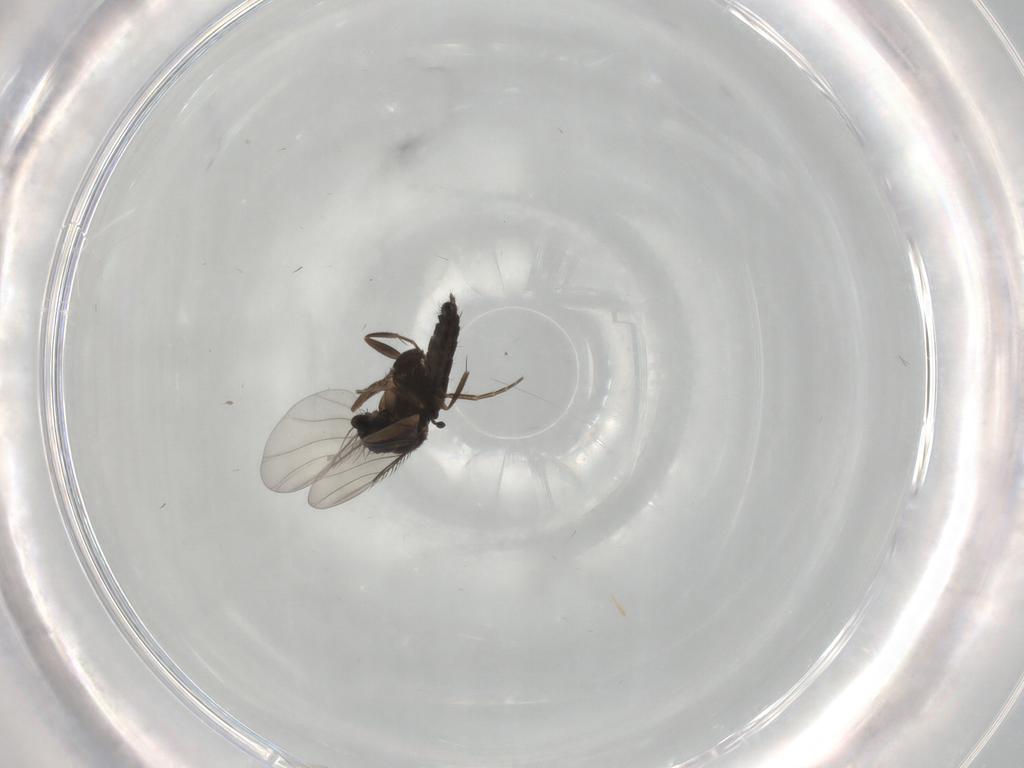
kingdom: Animalia
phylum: Arthropoda
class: Insecta
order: Diptera
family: Phoridae
